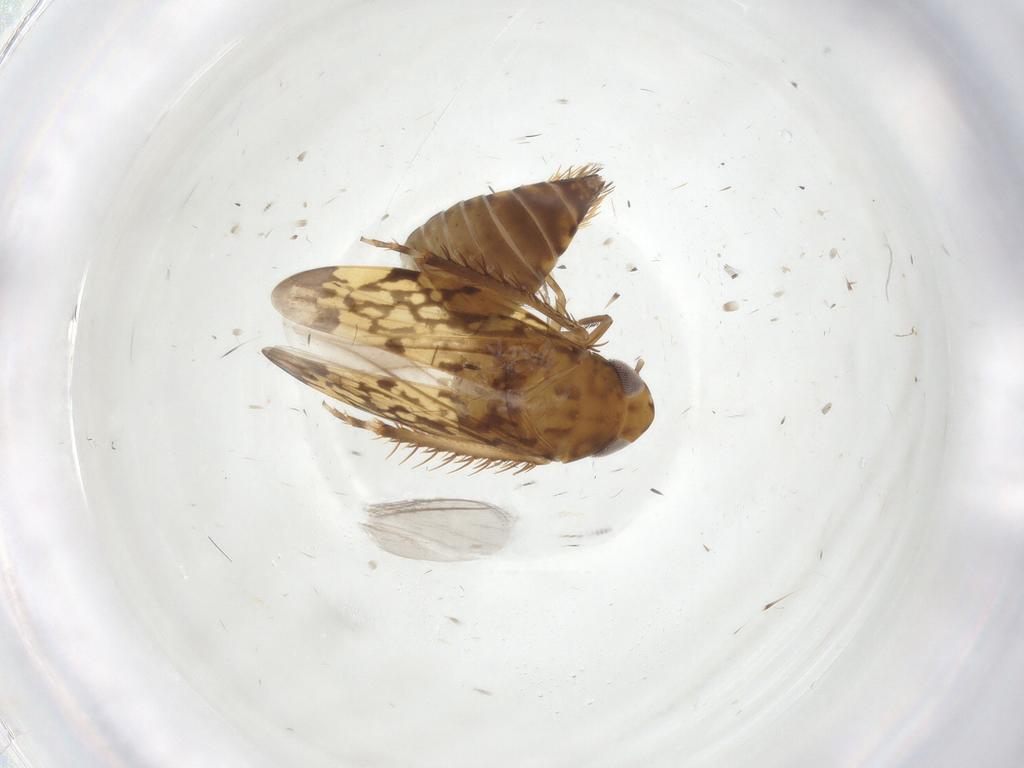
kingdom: Animalia
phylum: Arthropoda
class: Insecta
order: Hemiptera
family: Cicadellidae
